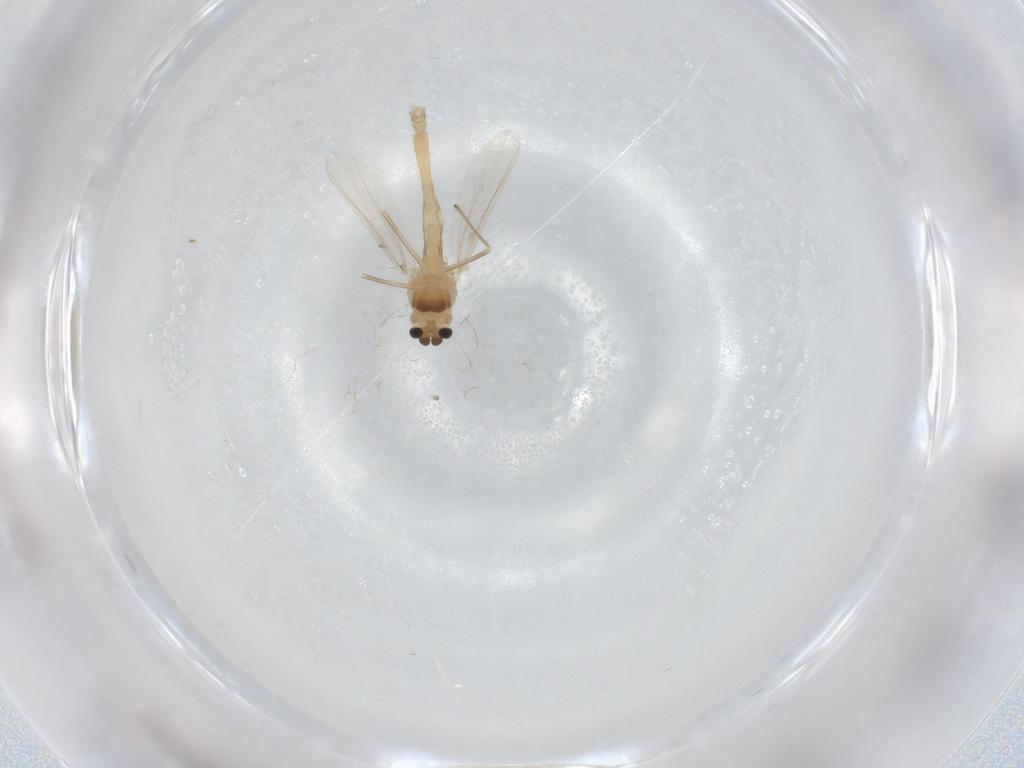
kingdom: Animalia
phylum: Arthropoda
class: Insecta
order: Diptera
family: Chironomidae
